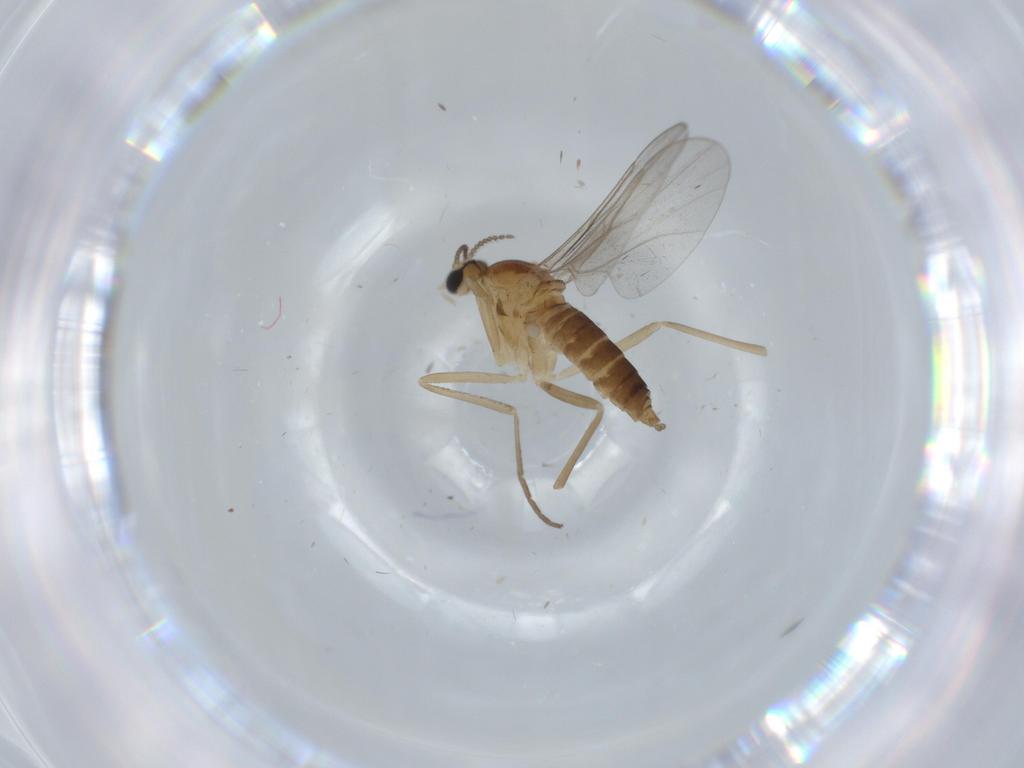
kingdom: Animalia
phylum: Arthropoda
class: Insecta
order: Diptera
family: Cecidomyiidae
